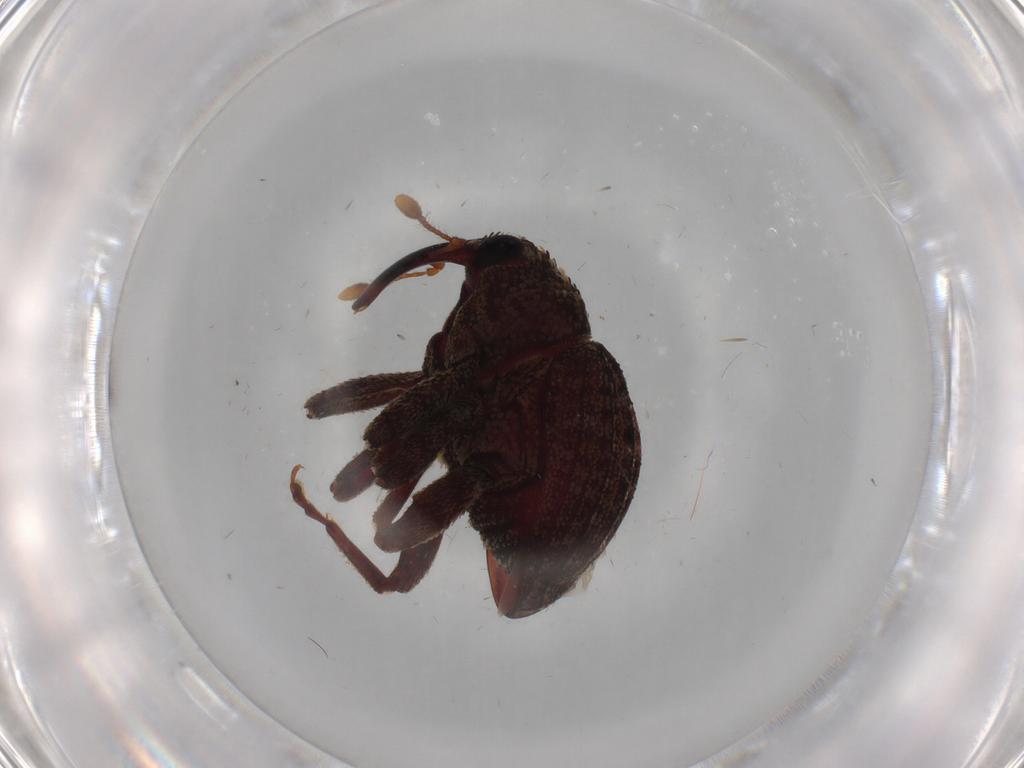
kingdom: Animalia
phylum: Arthropoda
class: Insecta
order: Coleoptera
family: Curculionidae
